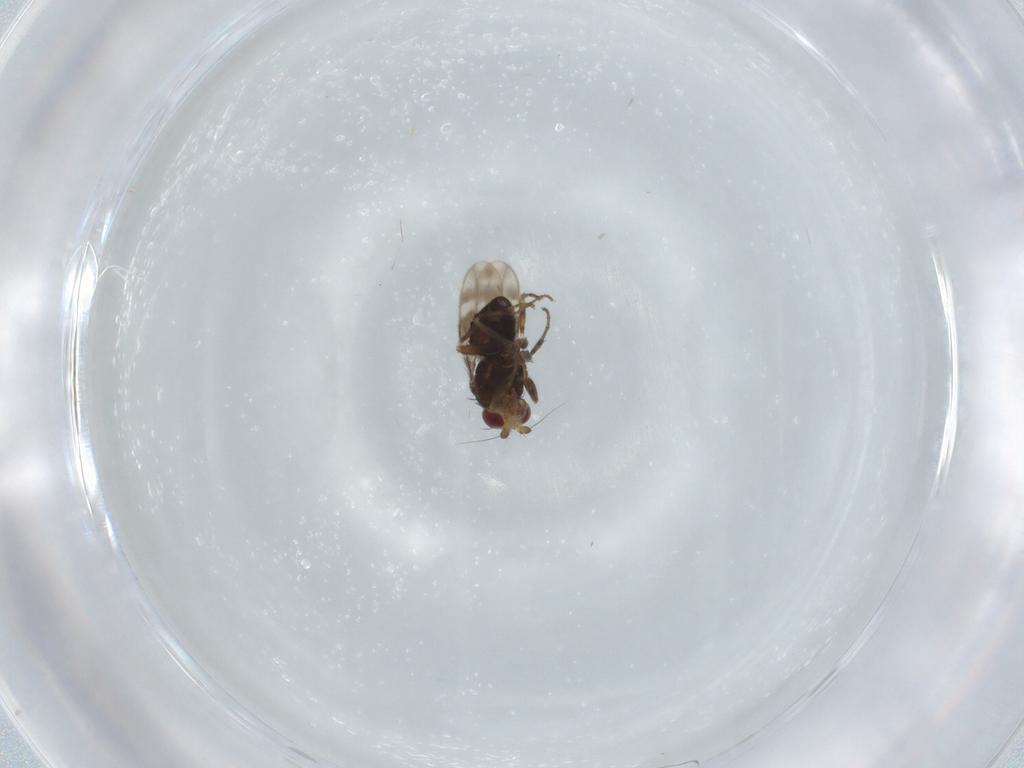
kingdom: Animalia
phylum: Arthropoda
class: Insecta
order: Diptera
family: Sphaeroceridae
